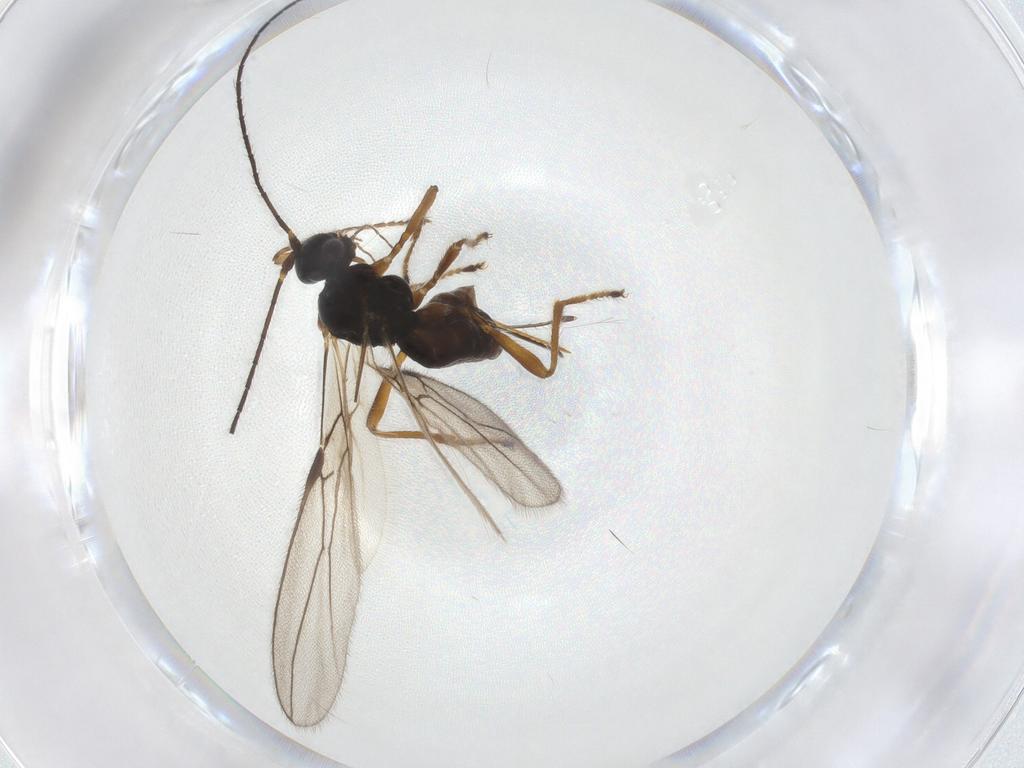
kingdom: Animalia
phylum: Arthropoda
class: Insecta
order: Hymenoptera
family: Braconidae
